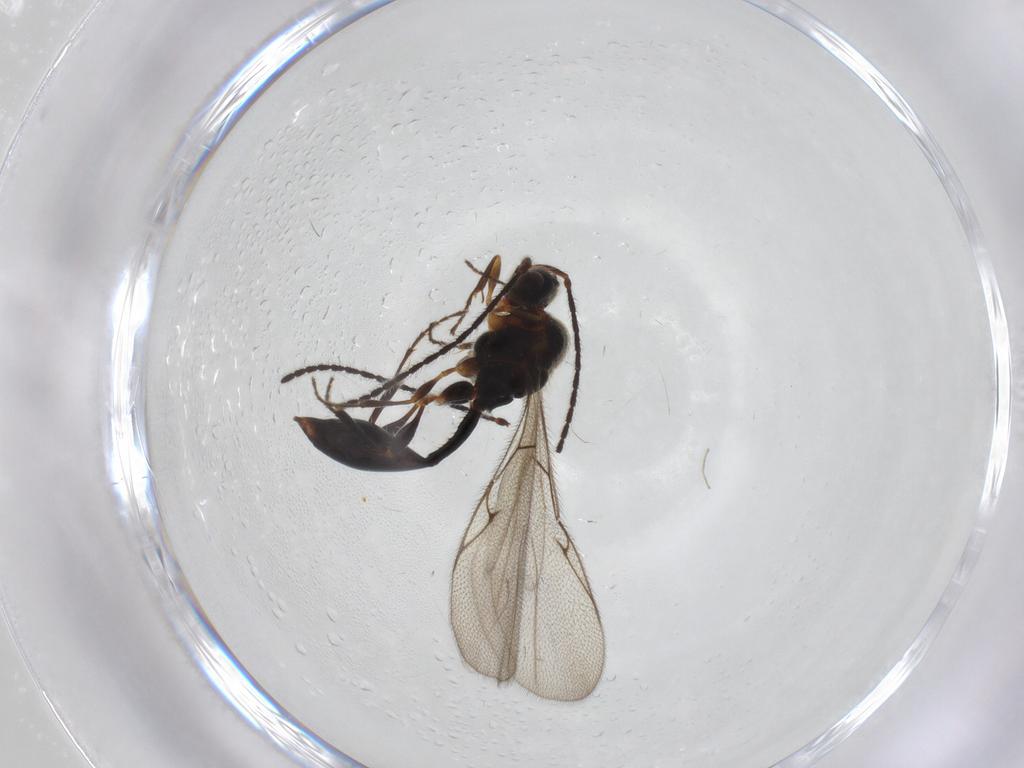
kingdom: Animalia
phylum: Arthropoda
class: Insecta
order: Hymenoptera
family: Diapriidae
